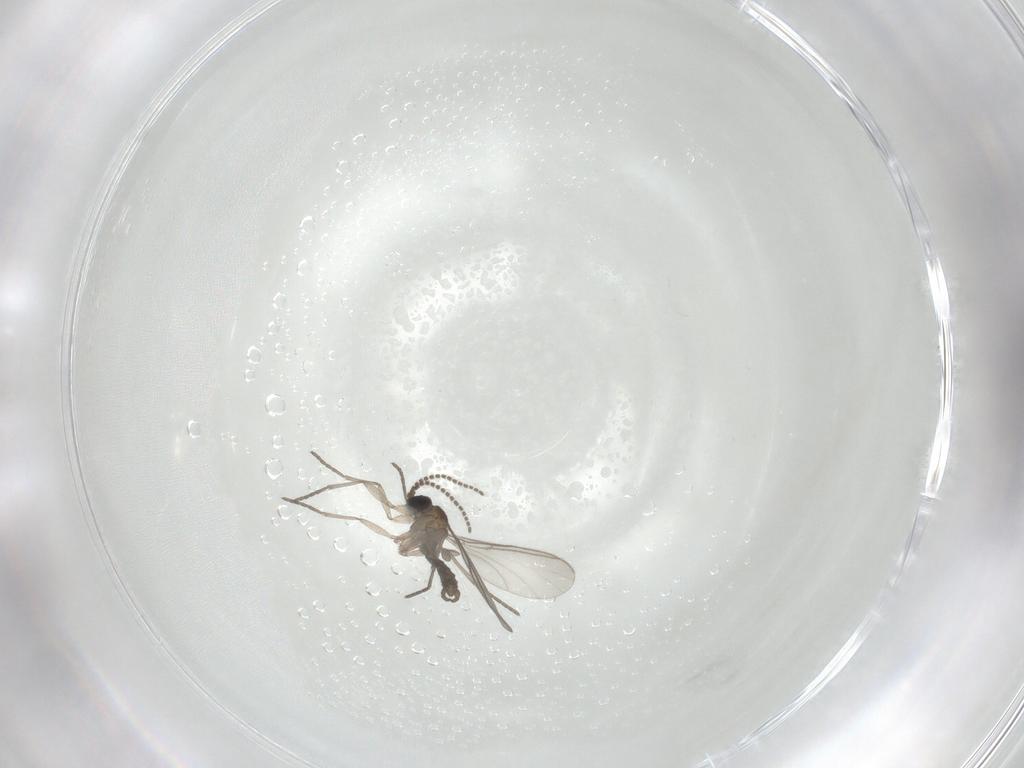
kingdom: Animalia
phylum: Arthropoda
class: Insecta
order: Diptera
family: Sciaridae
